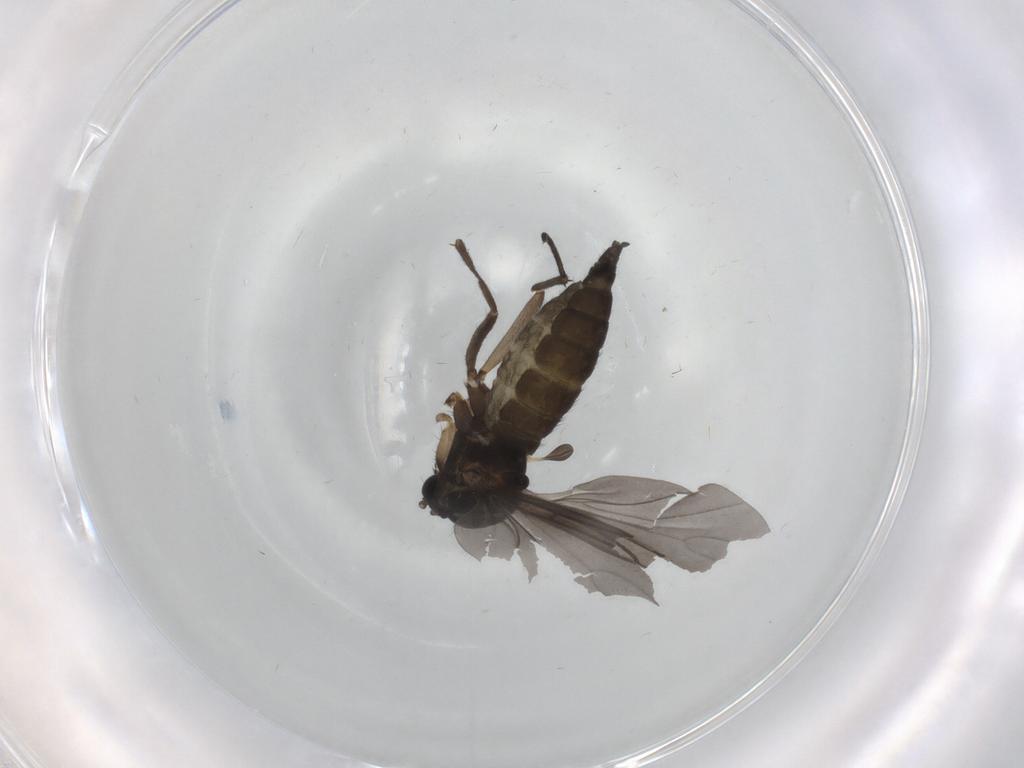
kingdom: Animalia
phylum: Arthropoda
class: Insecta
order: Diptera
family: Sciaridae
